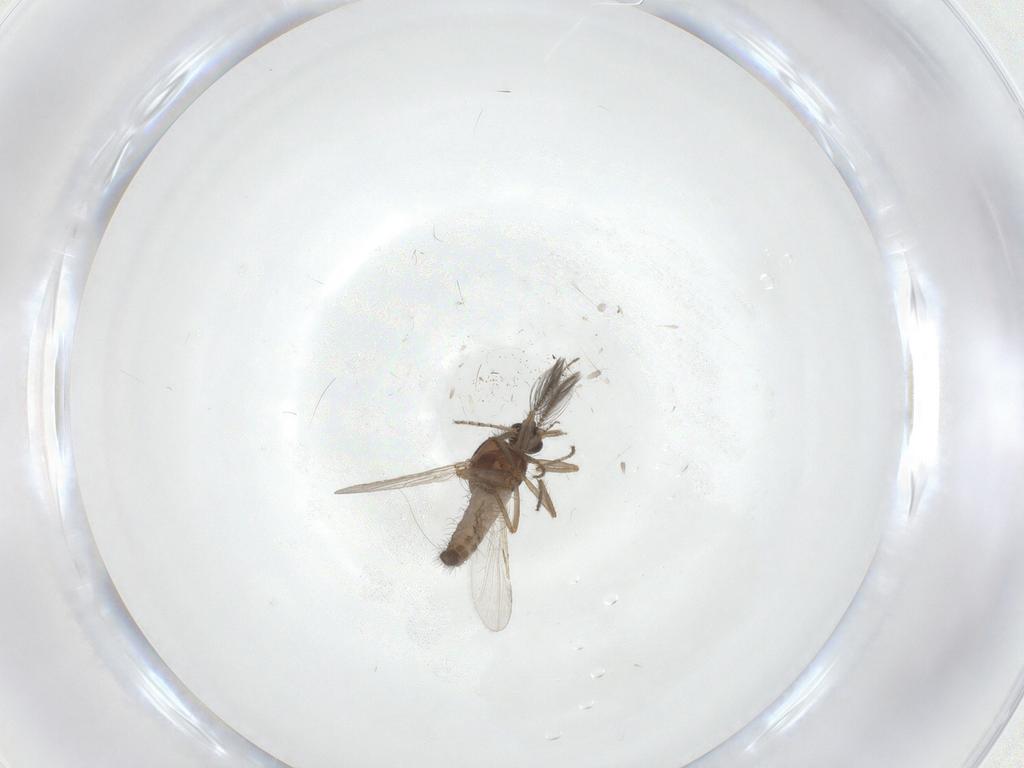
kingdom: Animalia
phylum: Arthropoda
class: Insecta
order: Diptera
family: Ceratopogonidae
